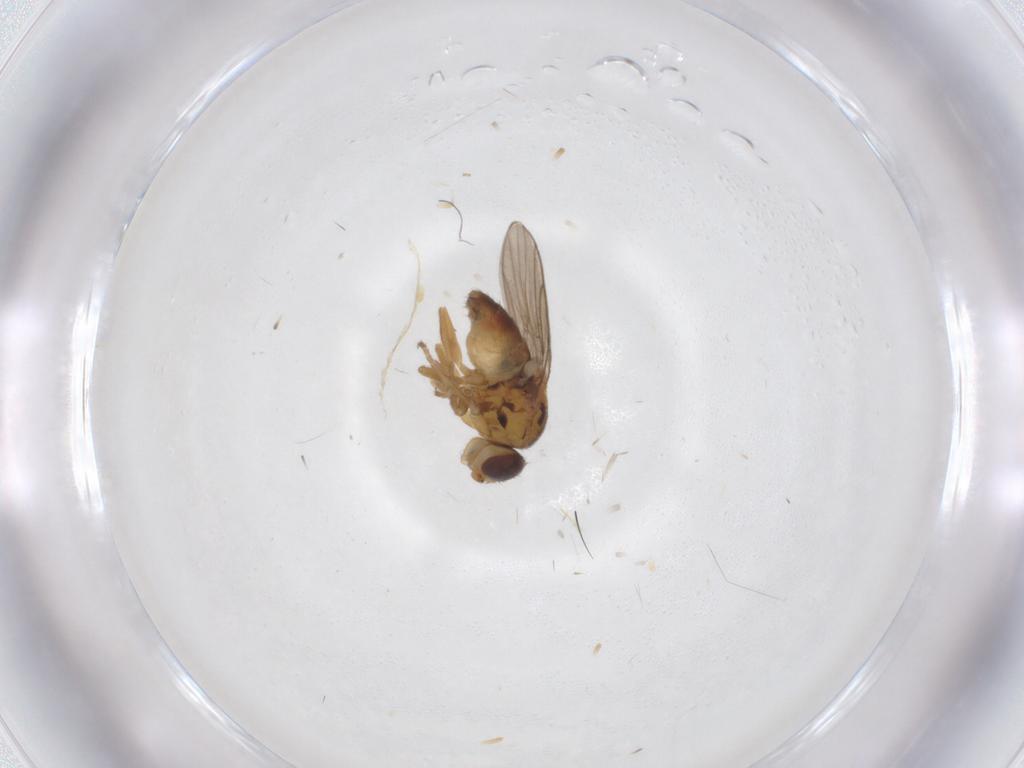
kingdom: Animalia
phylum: Arthropoda
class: Insecta
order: Diptera
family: Chloropidae
